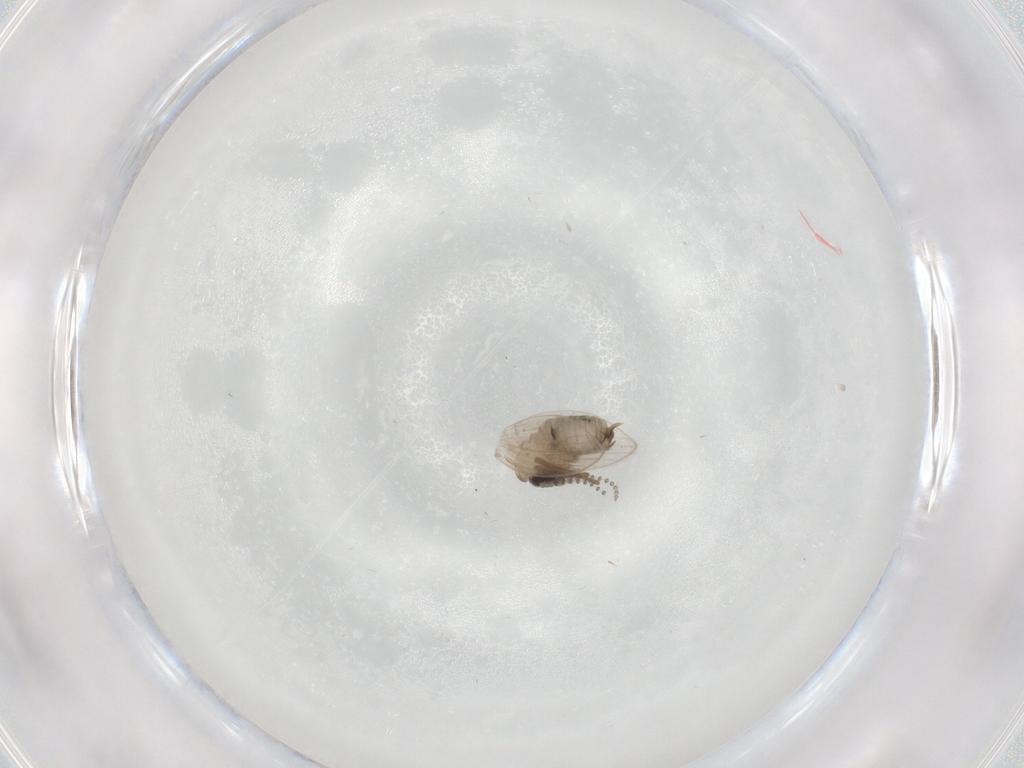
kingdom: Animalia
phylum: Arthropoda
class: Insecta
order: Diptera
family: Psychodidae
